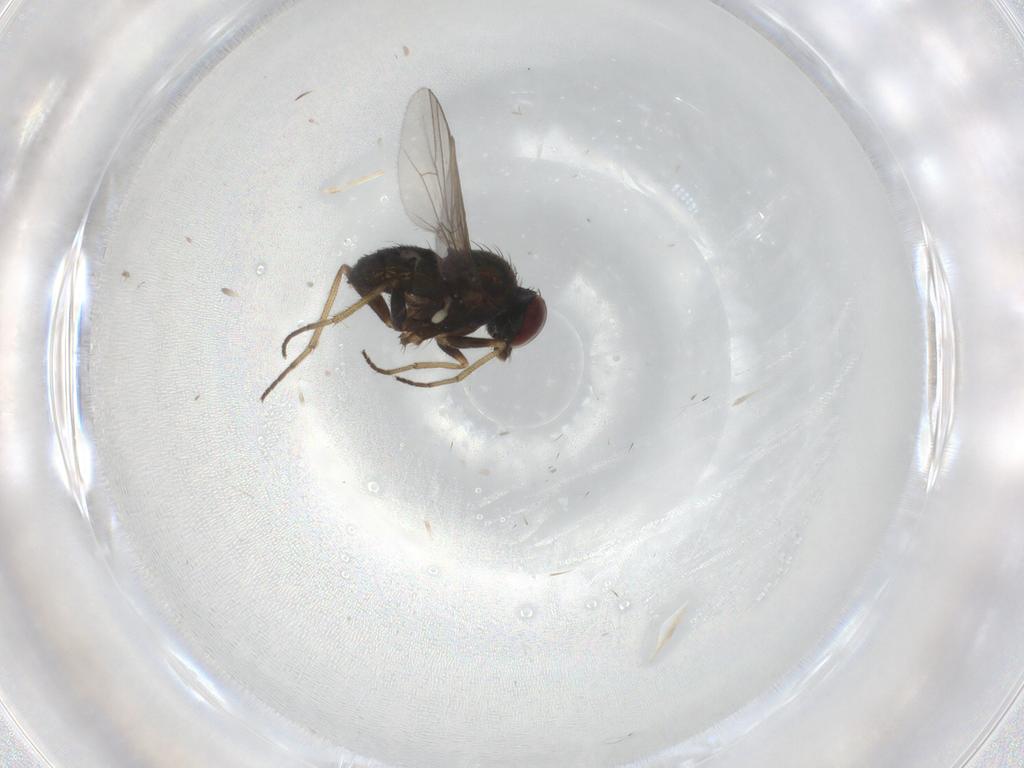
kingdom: Animalia
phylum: Arthropoda
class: Insecta
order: Diptera
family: Dolichopodidae
